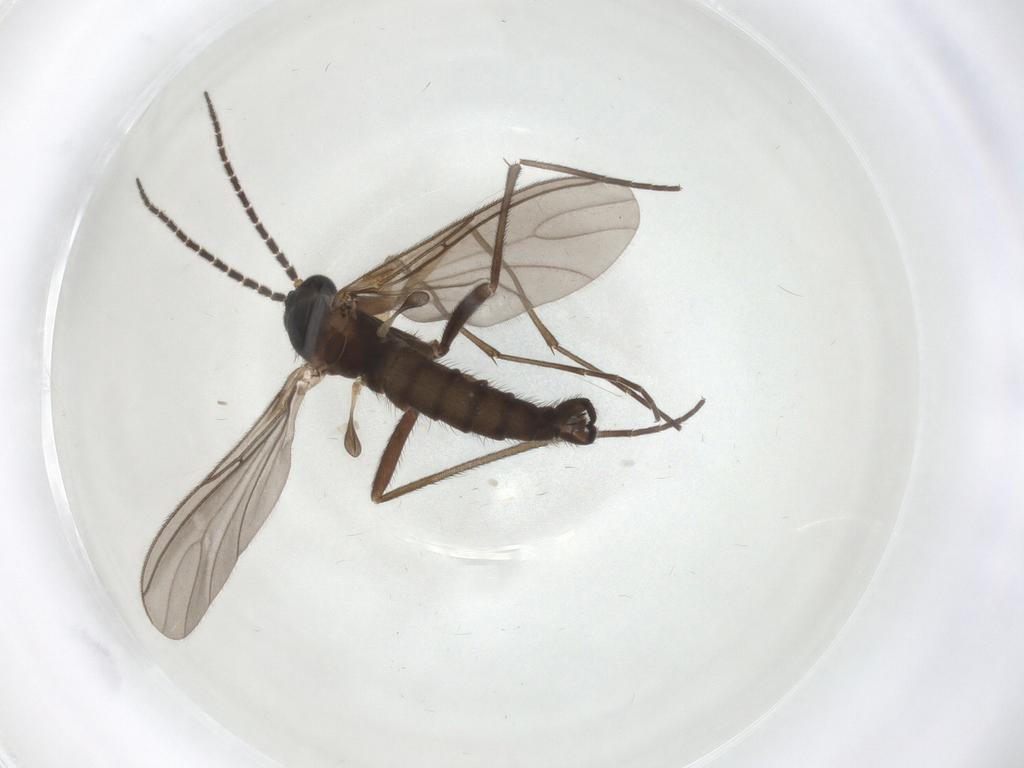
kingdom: Animalia
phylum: Arthropoda
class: Insecta
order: Diptera
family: Sciaridae
